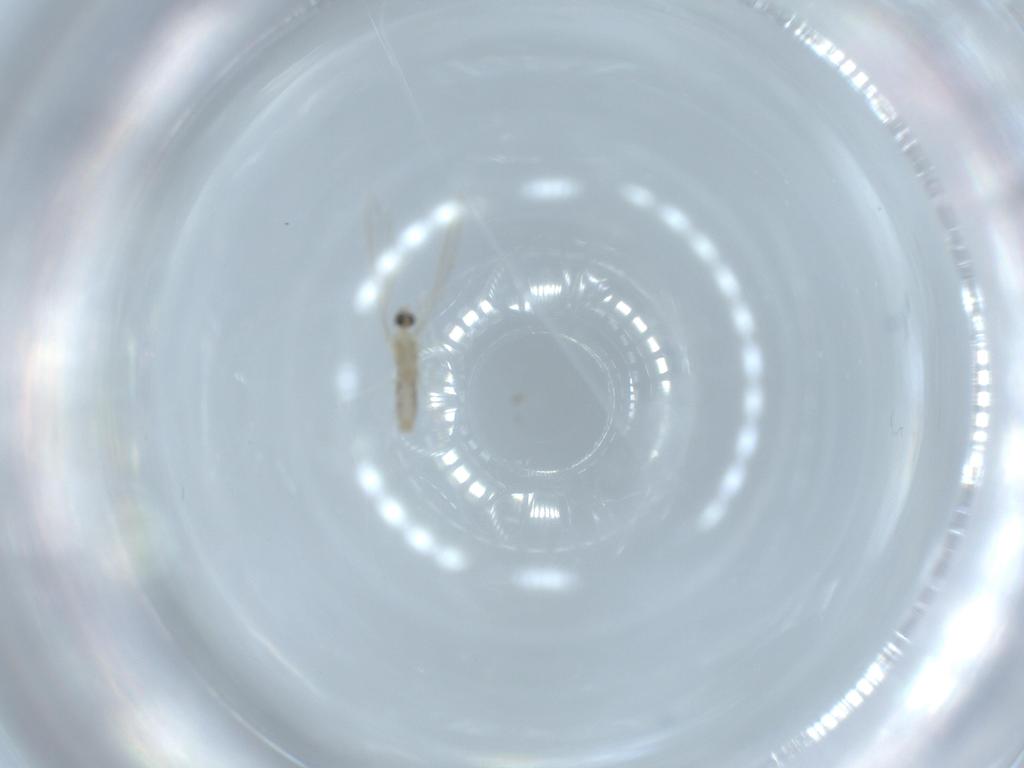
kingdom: Animalia
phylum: Arthropoda
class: Insecta
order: Diptera
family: Cecidomyiidae
